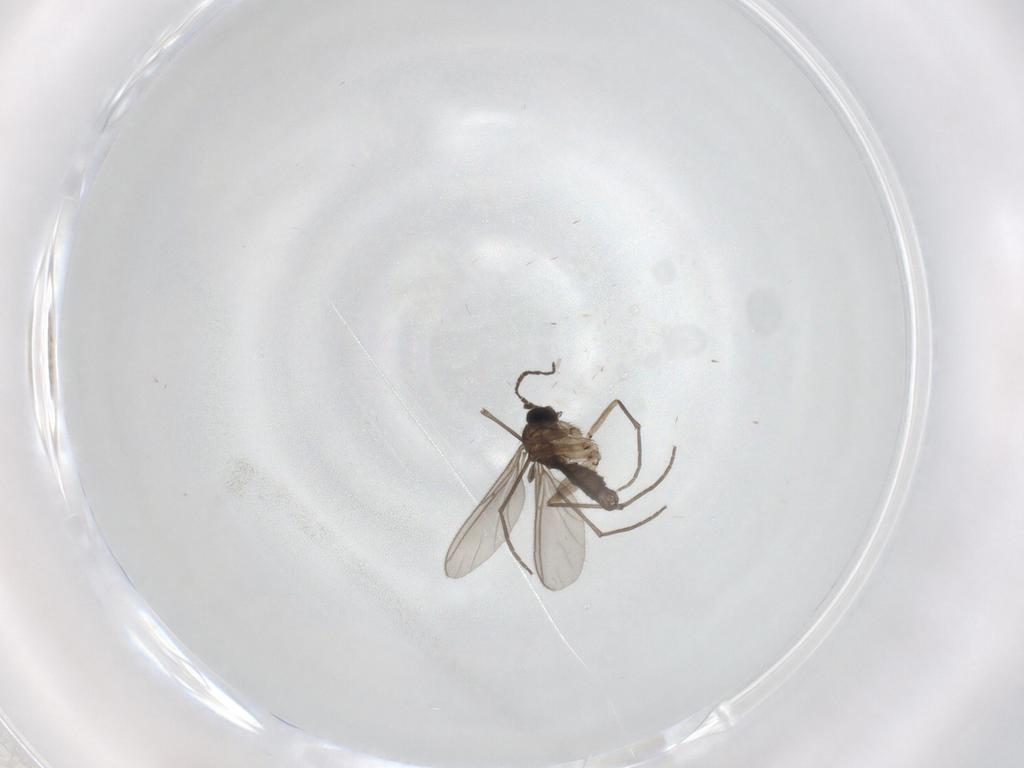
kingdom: Animalia
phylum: Arthropoda
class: Insecta
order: Diptera
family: Sciaridae
